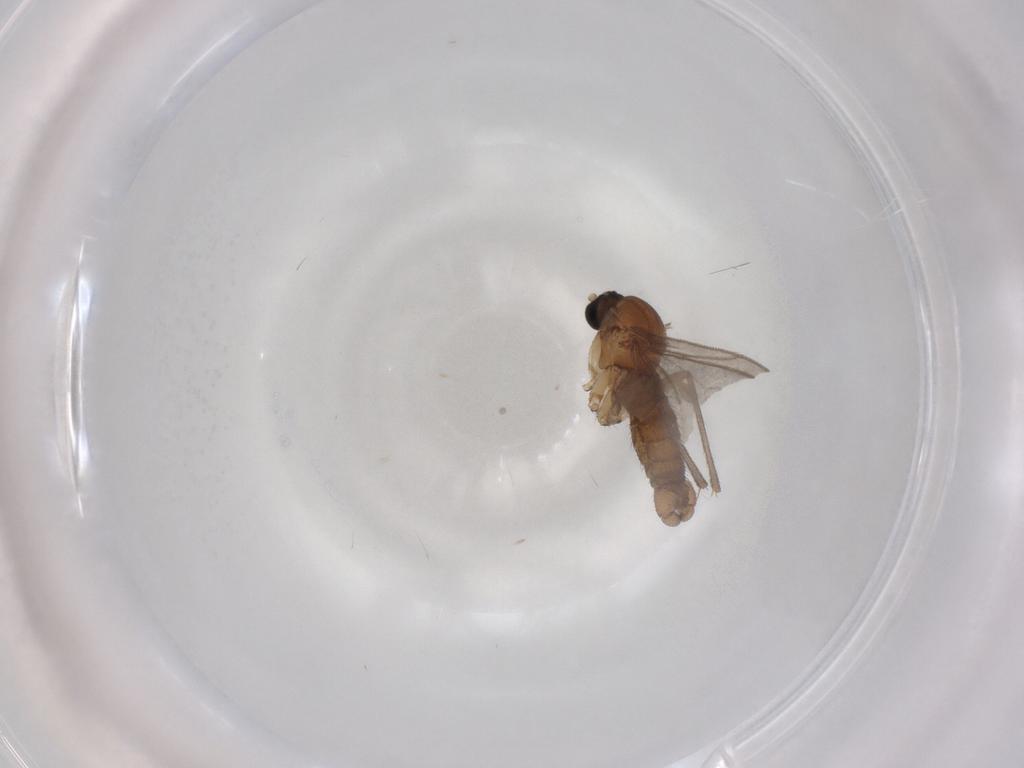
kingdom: Animalia
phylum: Arthropoda
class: Insecta
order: Diptera
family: Sciaridae
